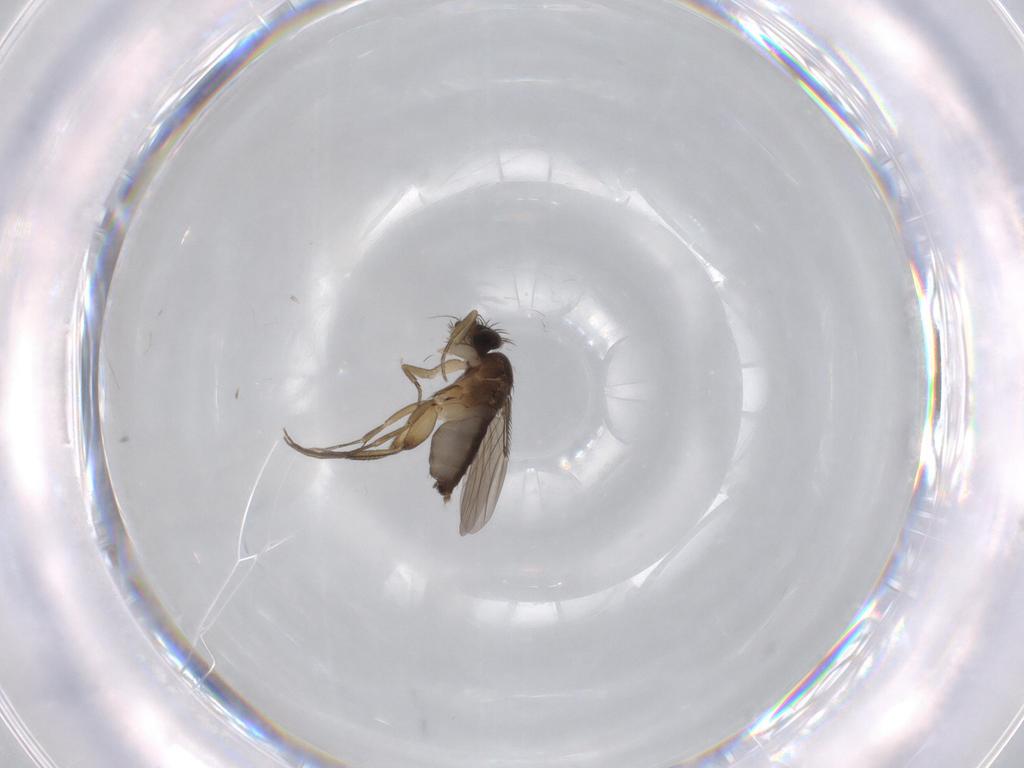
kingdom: Animalia
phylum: Arthropoda
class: Insecta
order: Diptera
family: Phoridae
